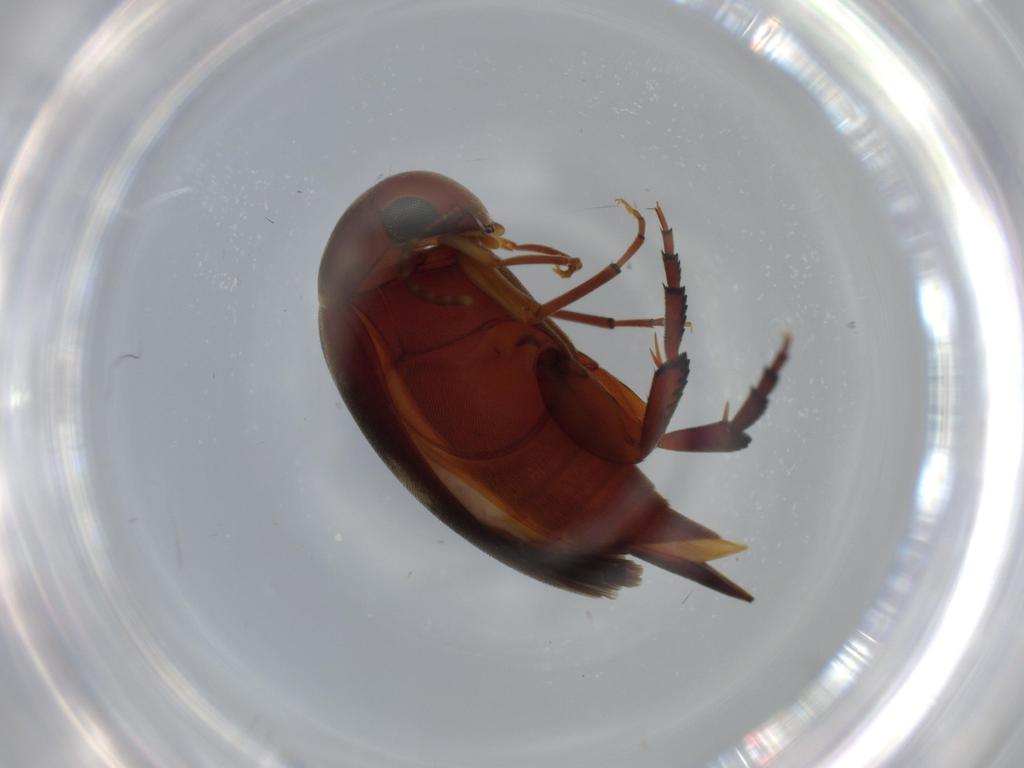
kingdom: Animalia
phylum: Arthropoda
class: Insecta
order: Coleoptera
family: Mordellidae
